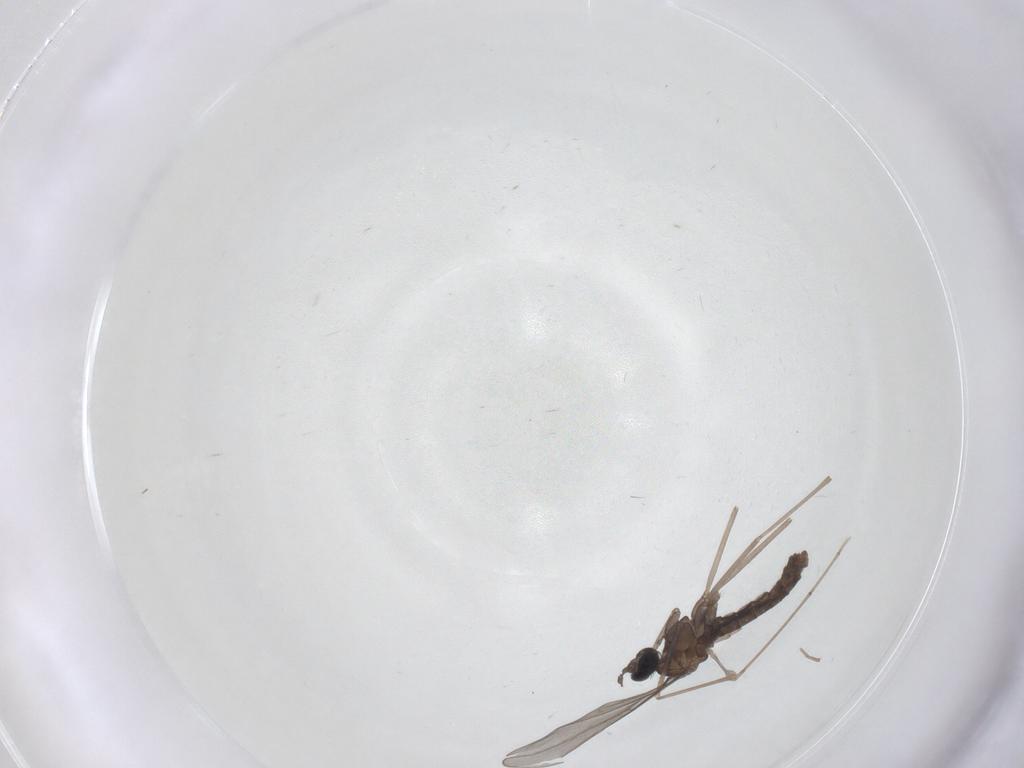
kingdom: Animalia
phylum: Arthropoda
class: Insecta
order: Diptera
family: Cecidomyiidae
